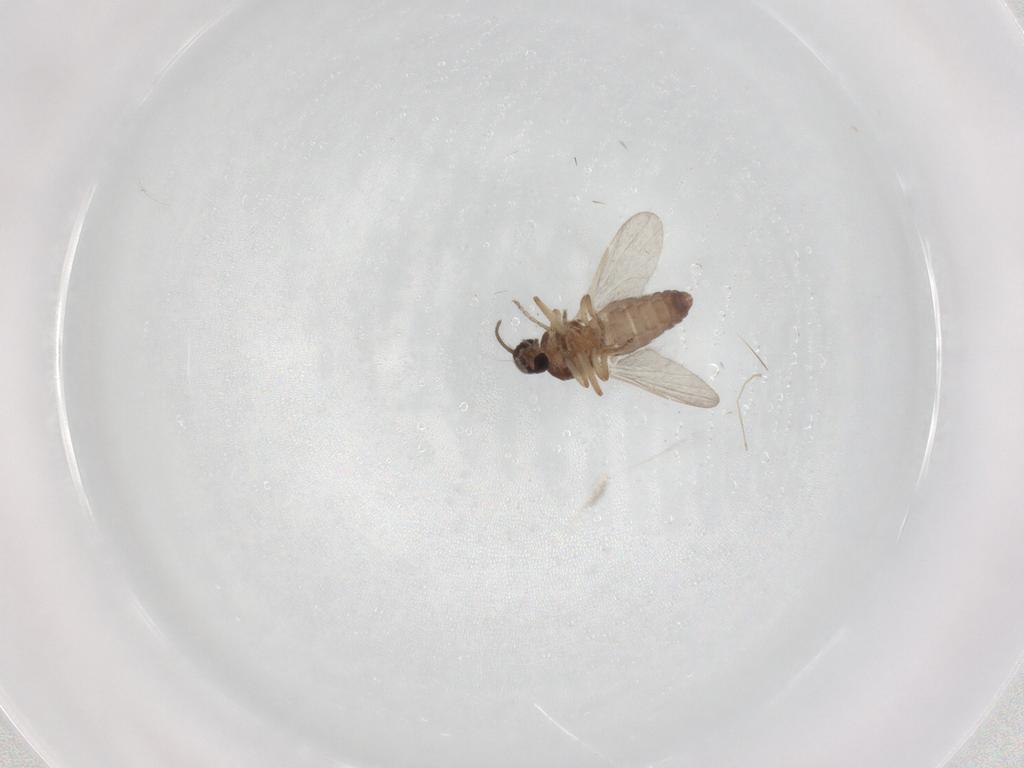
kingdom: Animalia
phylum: Arthropoda
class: Insecta
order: Diptera
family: Ceratopogonidae
